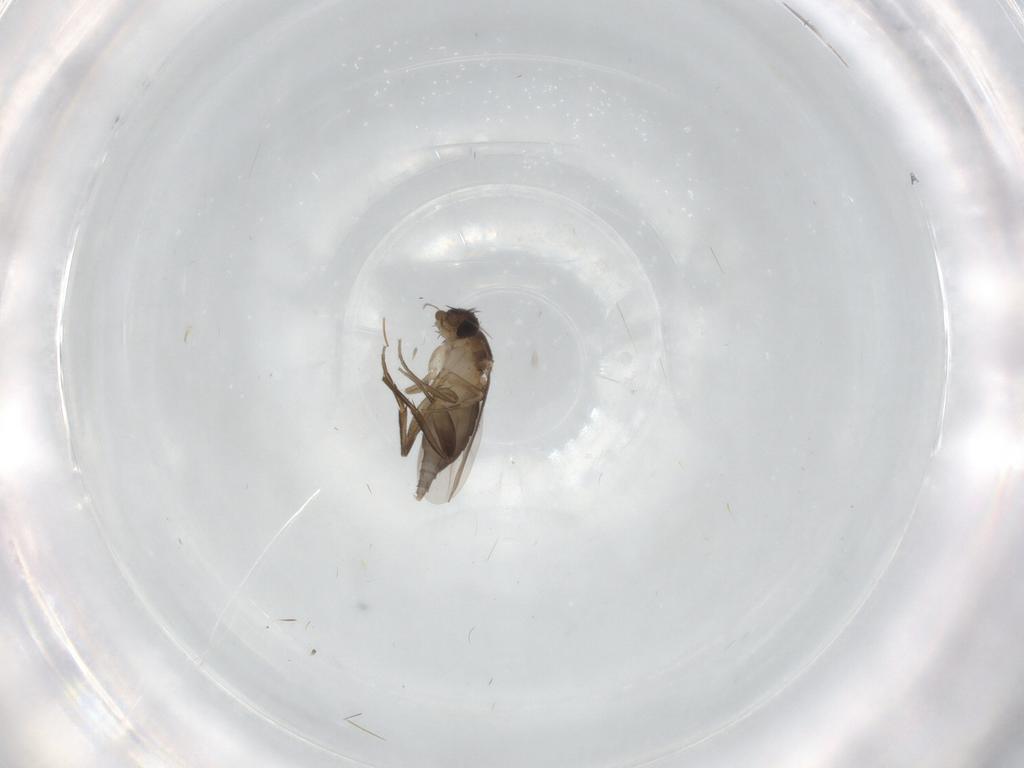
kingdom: Animalia
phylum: Arthropoda
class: Insecta
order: Diptera
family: Phoridae
